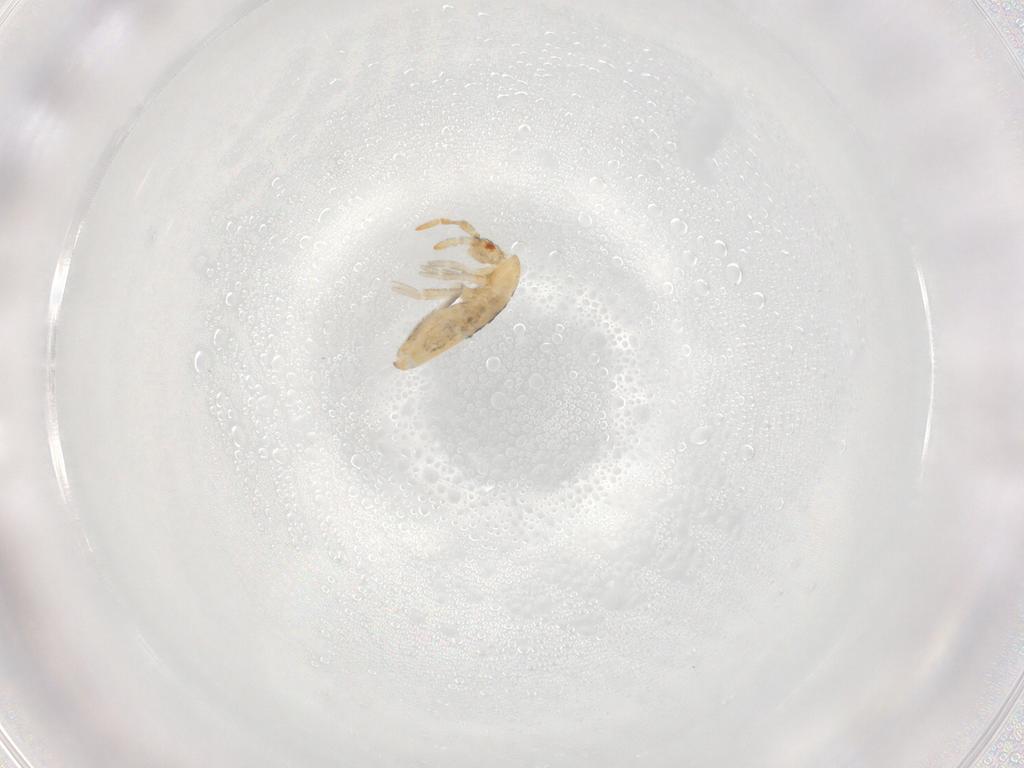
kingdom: Animalia
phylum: Arthropoda
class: Collembola
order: Entomobryomorpha
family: Entomobryidae
